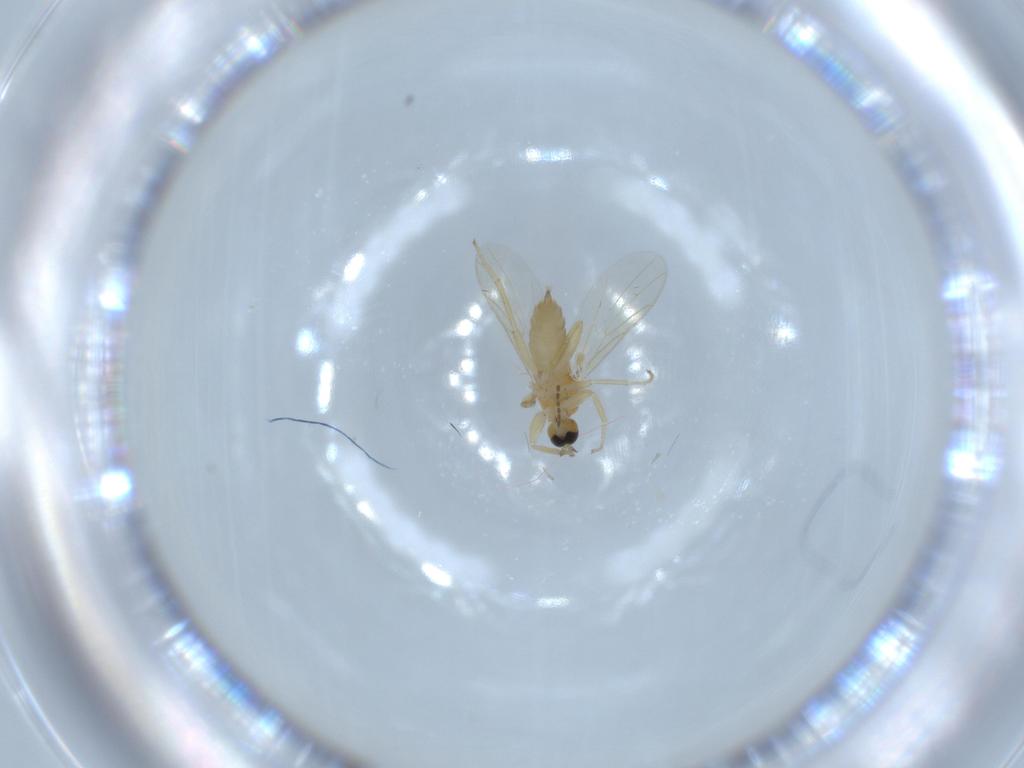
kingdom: Animalia
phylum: Arthropoda
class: Insecta
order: Diptera
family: Hybotidae
